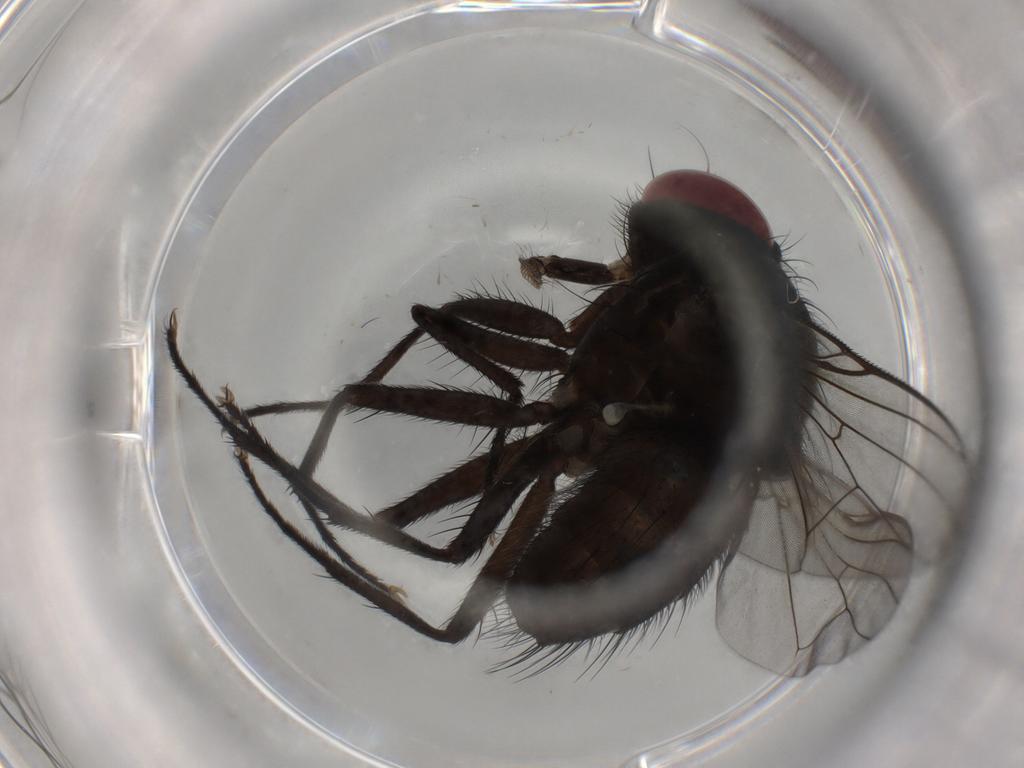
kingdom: Animalia
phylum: Arthropoda
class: Insecta
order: Diptera
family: Muscidae
